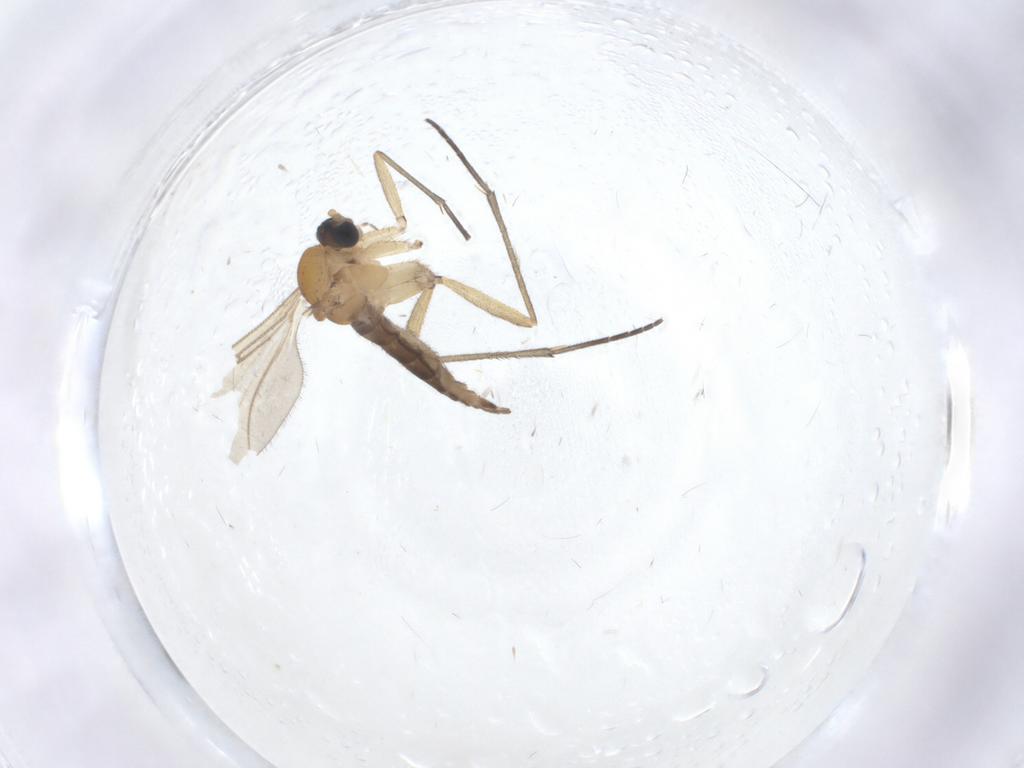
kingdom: Animalia
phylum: Arthropoda
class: Insecta
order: Diptera
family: Sciaridae
